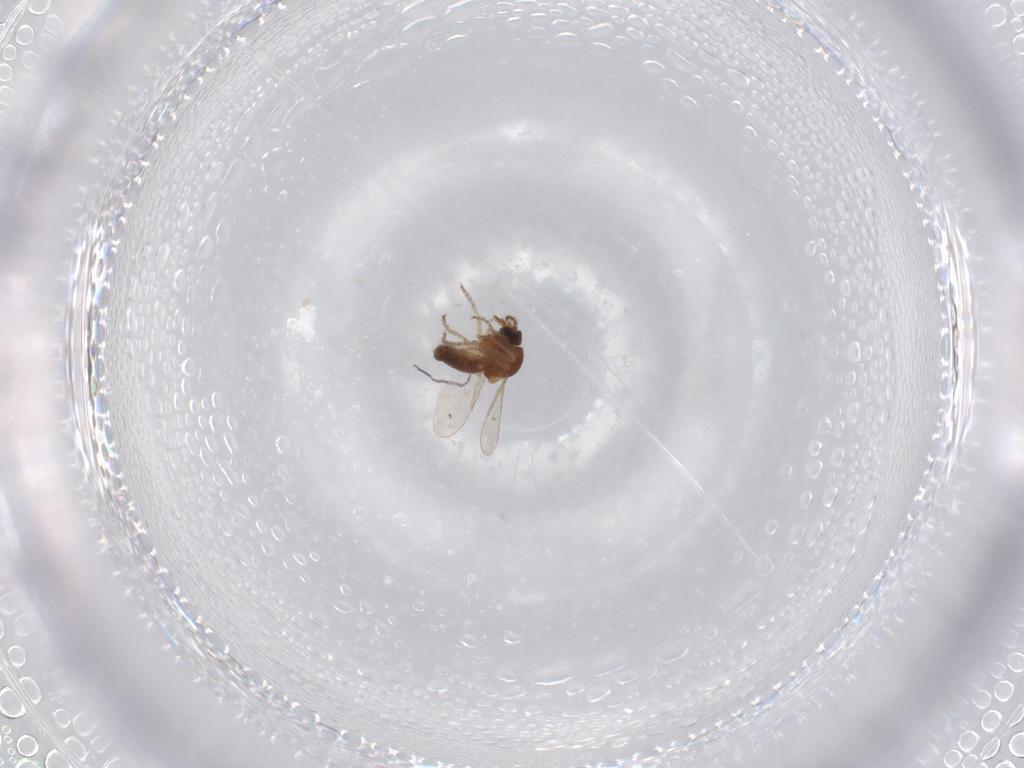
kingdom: Animalia
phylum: Arthropoda
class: Insecta
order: Diptera
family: Ceratopogonidae
